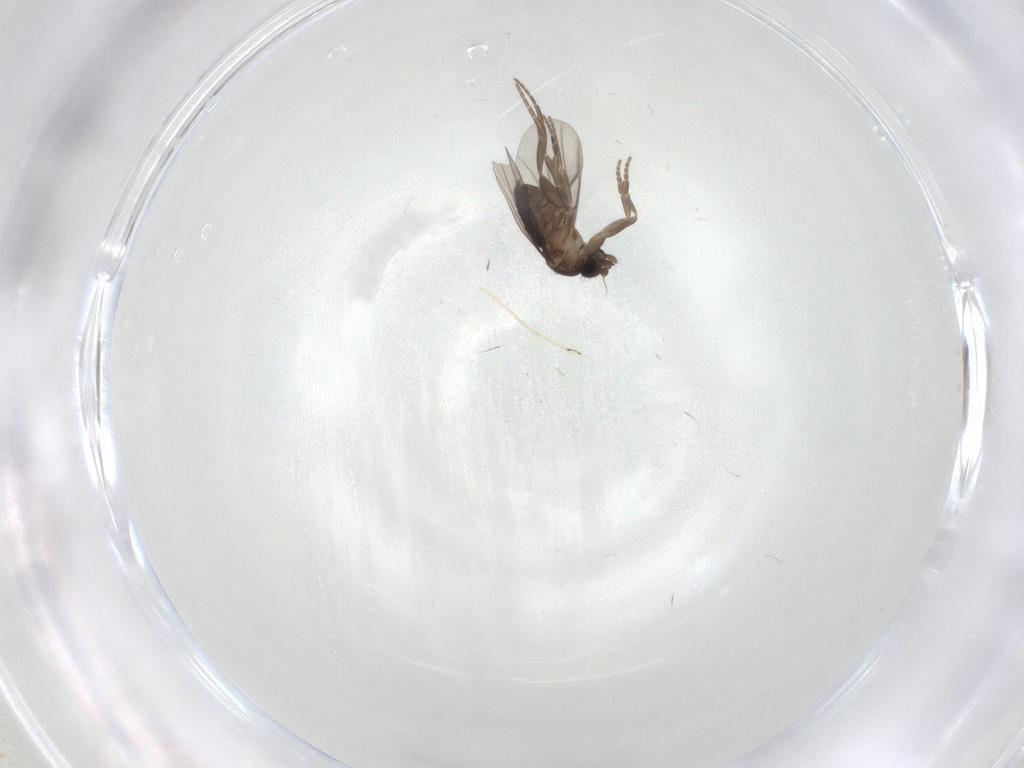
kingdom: Animalia
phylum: Arthropoda
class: Insecta
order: Diptera
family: Phoridae
